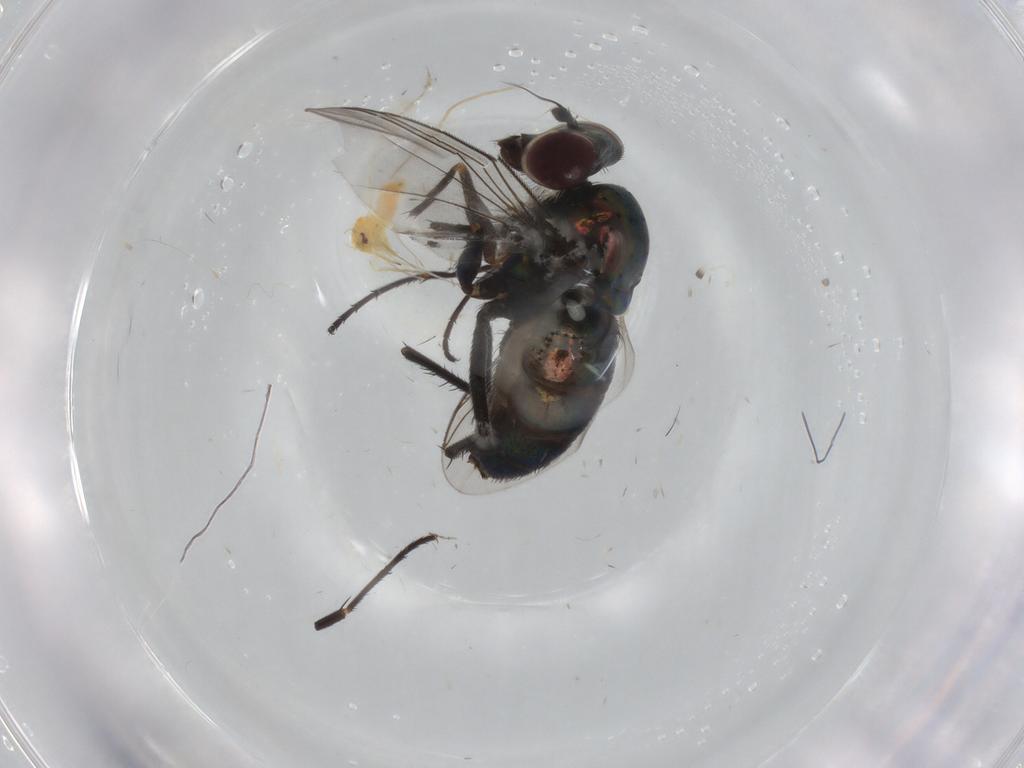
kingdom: Animalia
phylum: Arthropoda
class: Insecta
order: Diptera
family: Dolichopodidae
